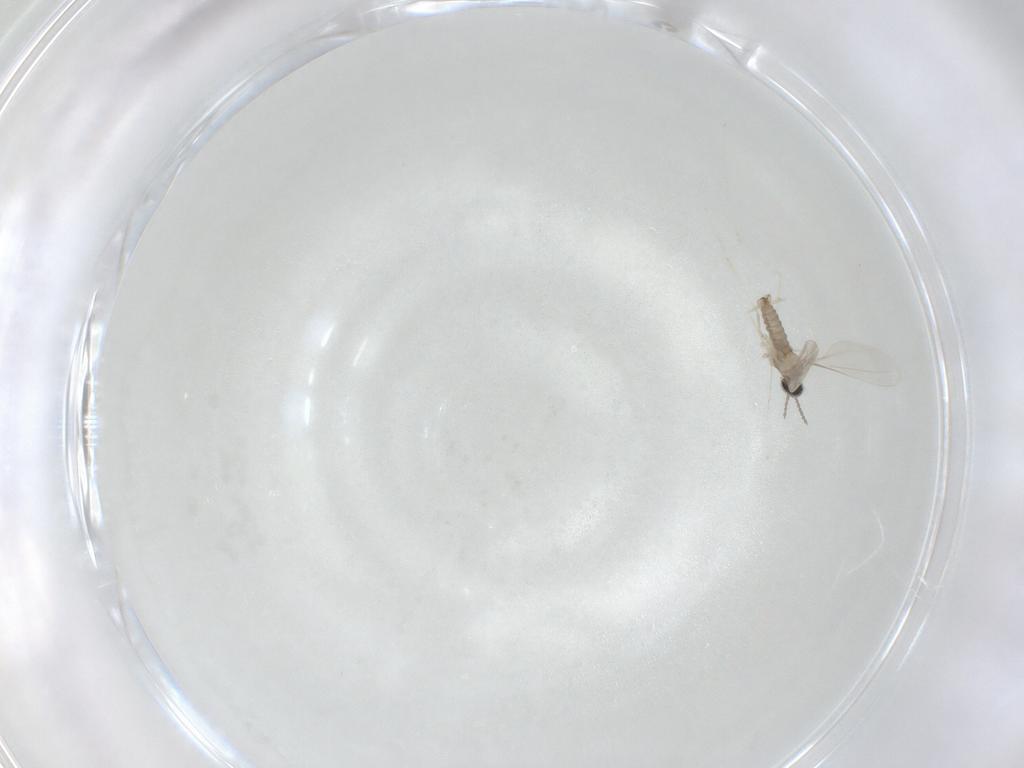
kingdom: Animalia
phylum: Arthropoda
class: Insecta
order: Diptera
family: Cecidomyiidae
